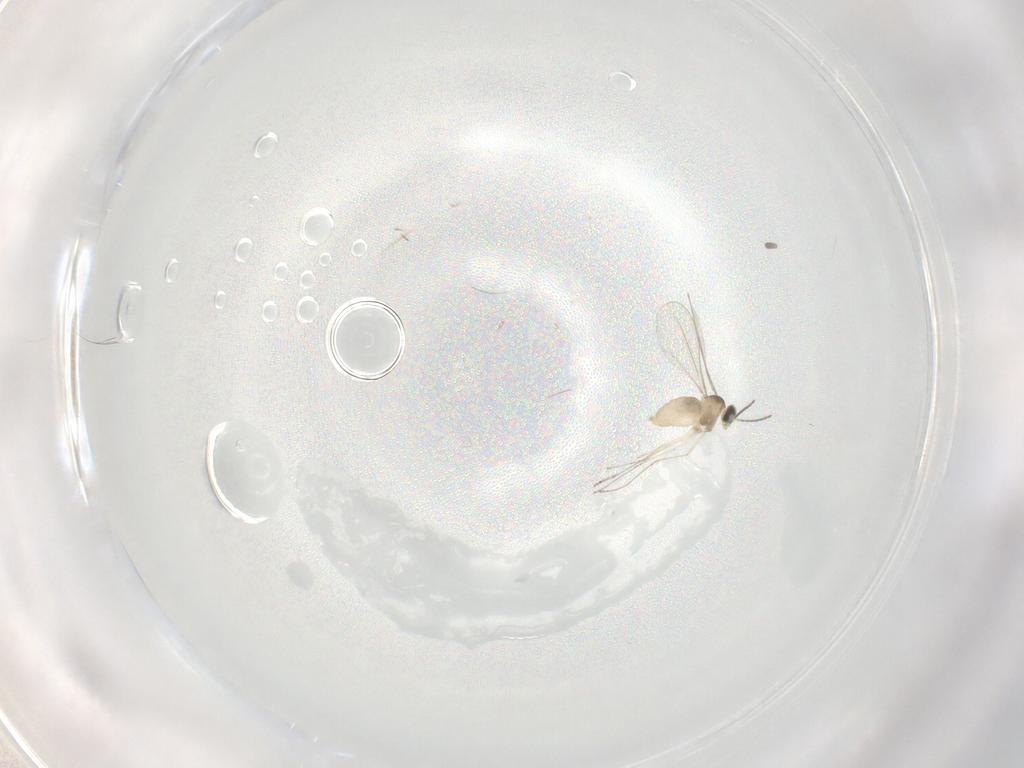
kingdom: Animalia
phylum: Arthropoda
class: Insecta
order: Diptera
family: Cecidomyiidae
